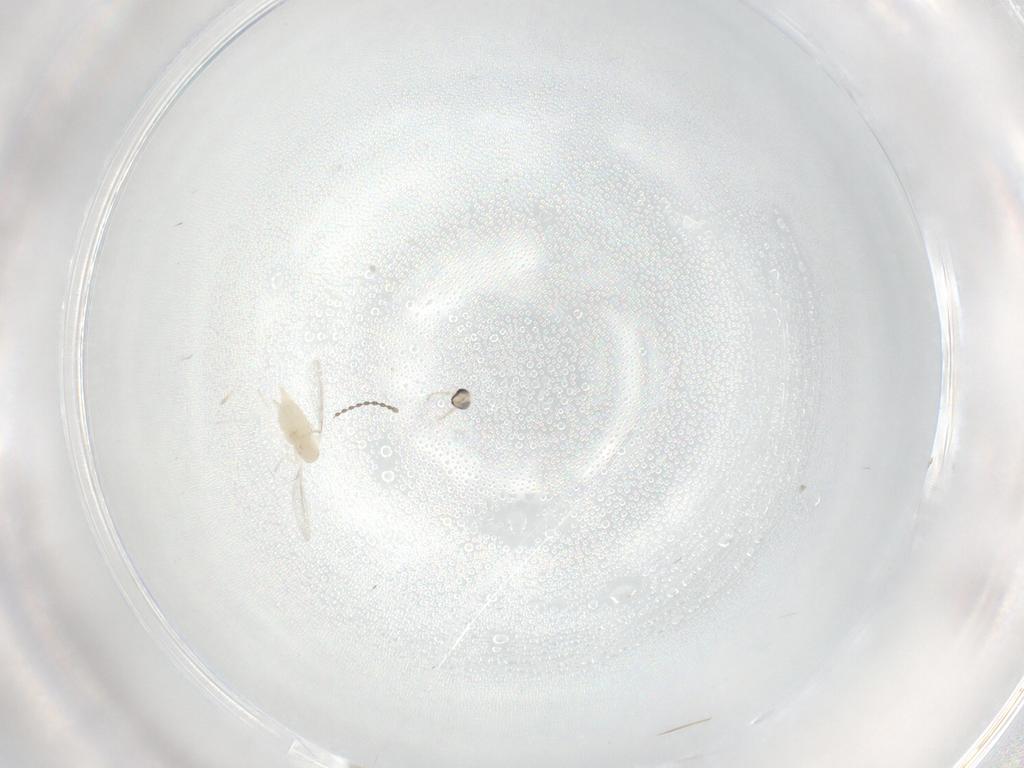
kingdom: Animalia
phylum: Arthropoda
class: Insecta
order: Diptera
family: Cecidomyiidae
